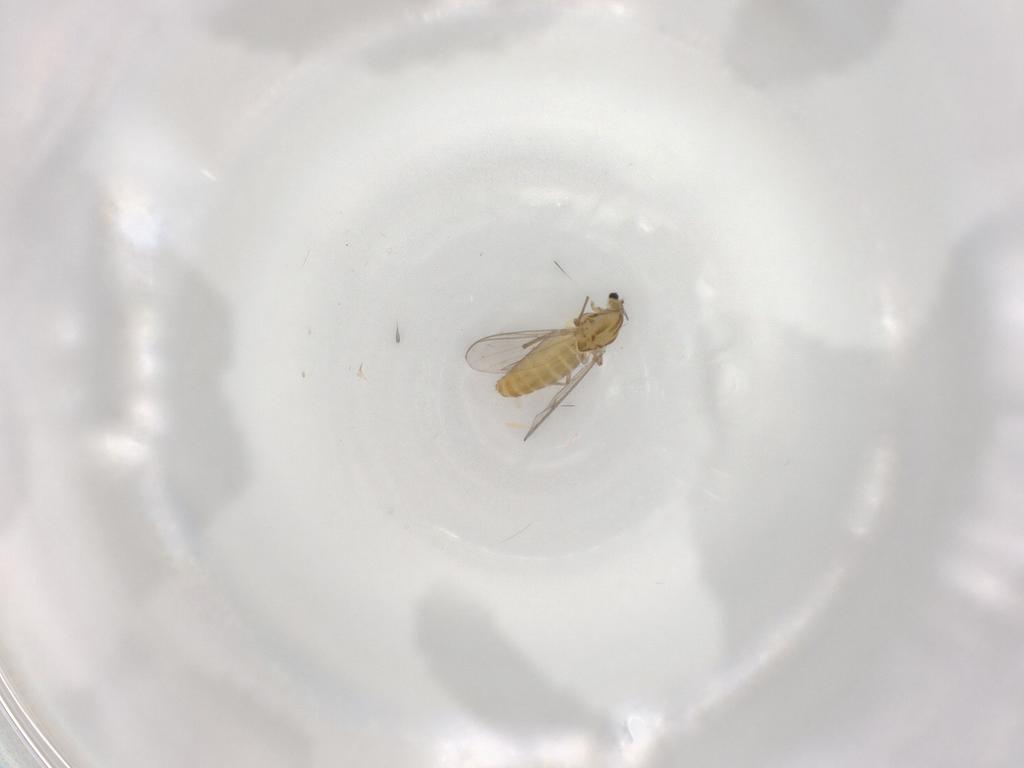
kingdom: Animalia
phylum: Arthropoda
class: Insecta
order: Diptera
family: Chironomidae
